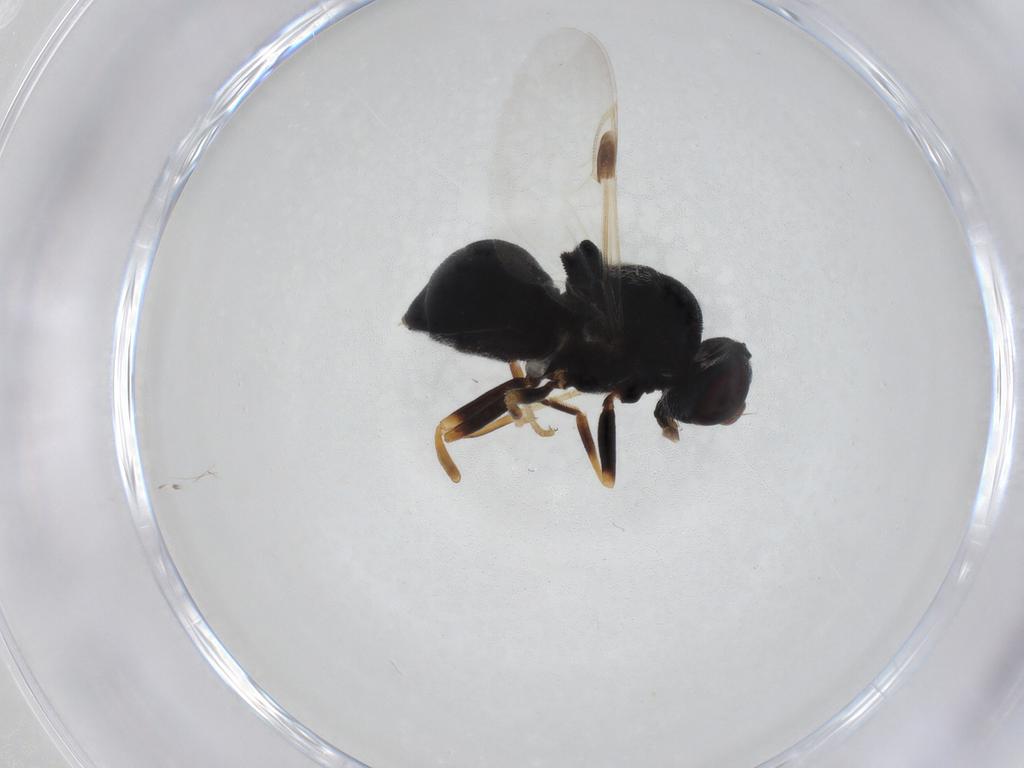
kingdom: Animalia
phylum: Arthropoda
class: Insecta
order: Diptera
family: Stratiomyidae
